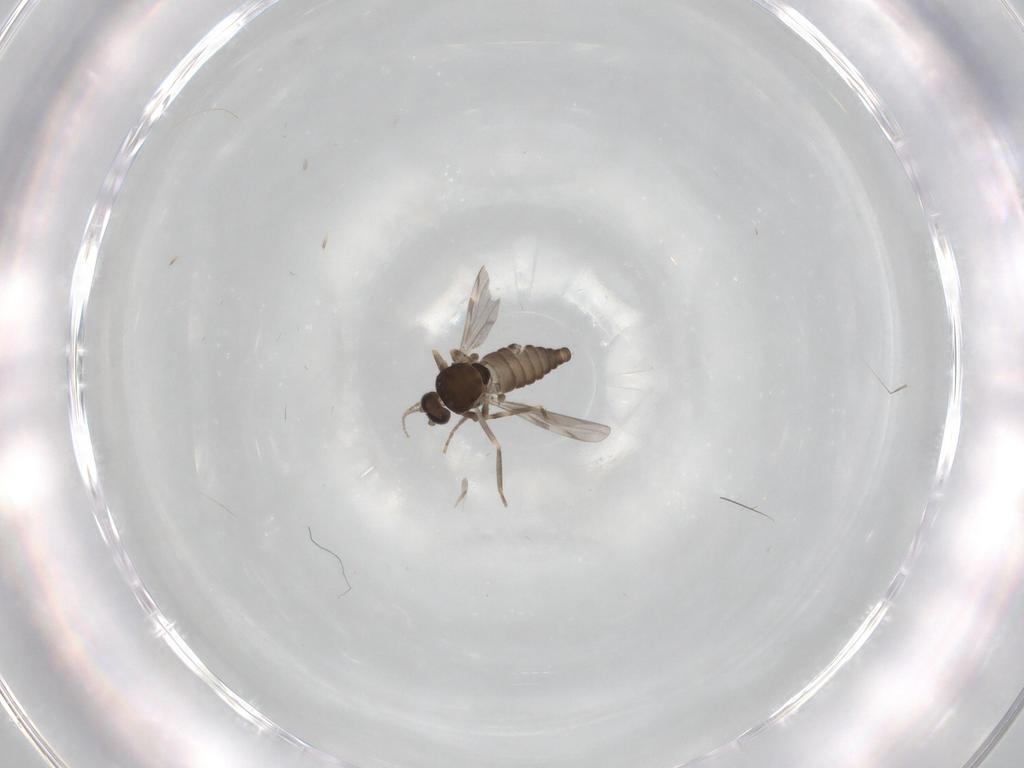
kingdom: Animalia
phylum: Arthropoda
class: Insecta
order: Diptera
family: Ceratopogonidae
